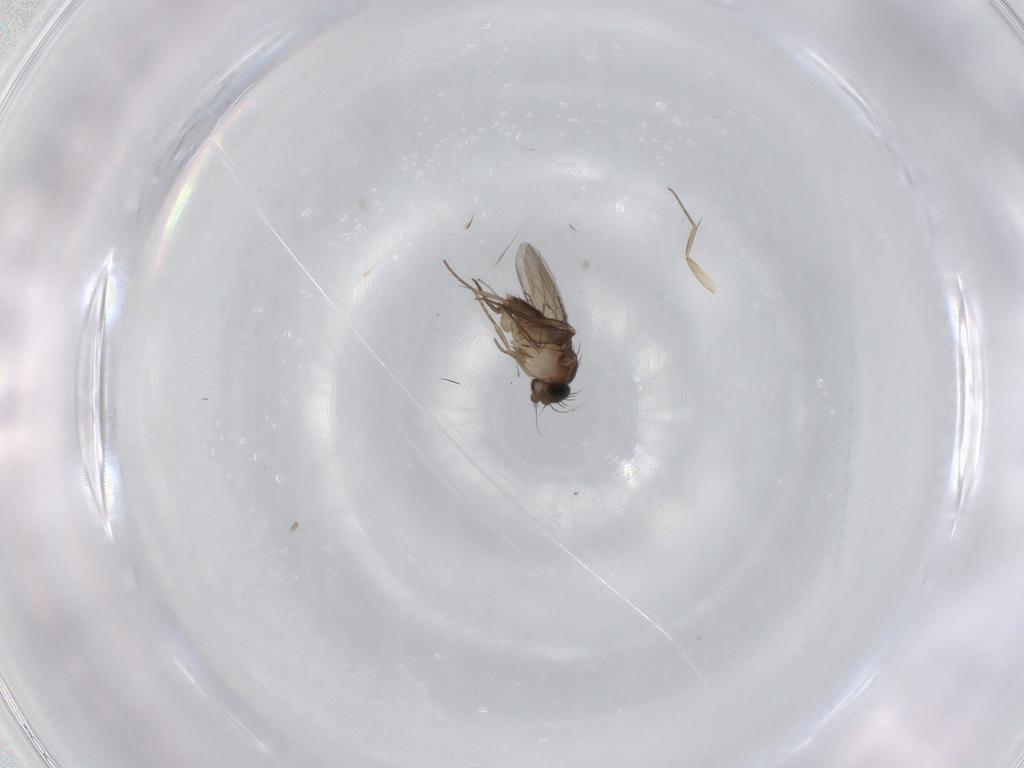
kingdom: Animalia
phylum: Arthropoda
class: Insecta
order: Diptera
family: Phoridae
